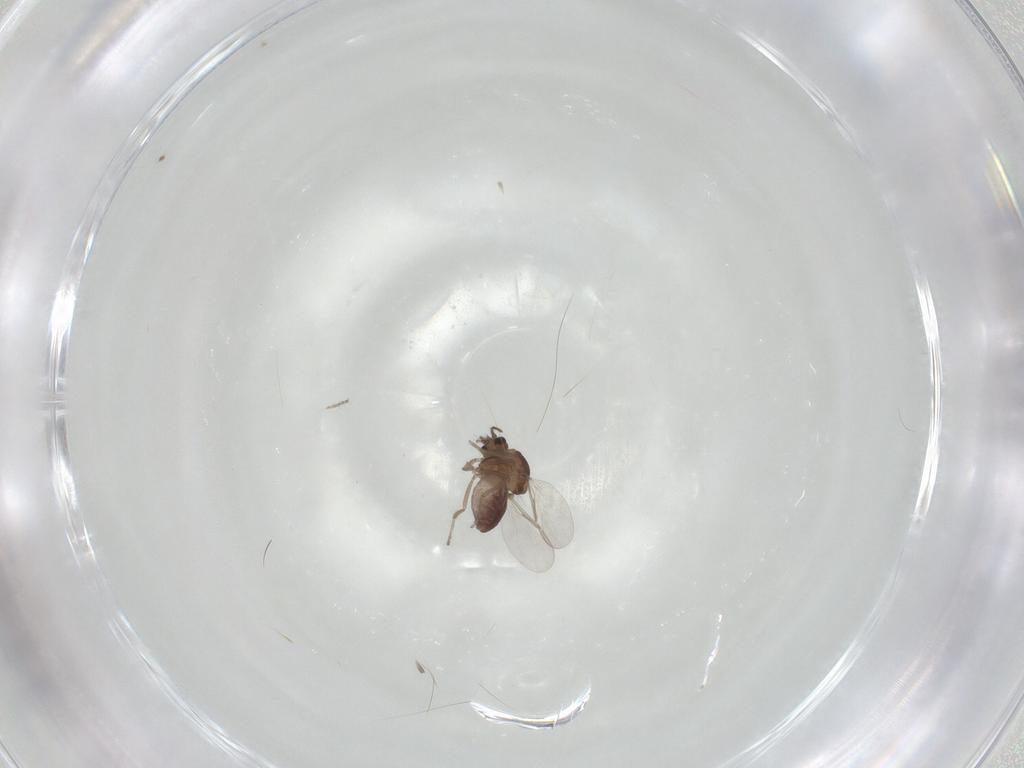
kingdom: Animalia
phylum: Arthropoda
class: Insecta
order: Diptera
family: Ceratopogonidae
